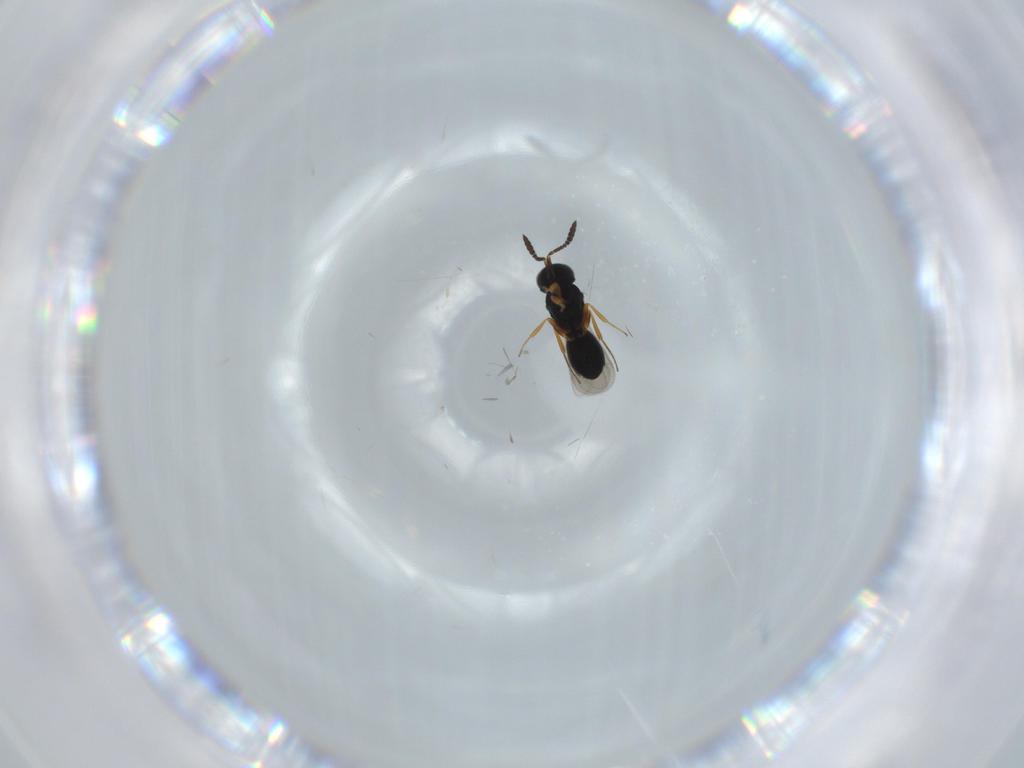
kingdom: Animalia
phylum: Arthropoda
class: Insecta
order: Hymenoptera
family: Scelionidae
